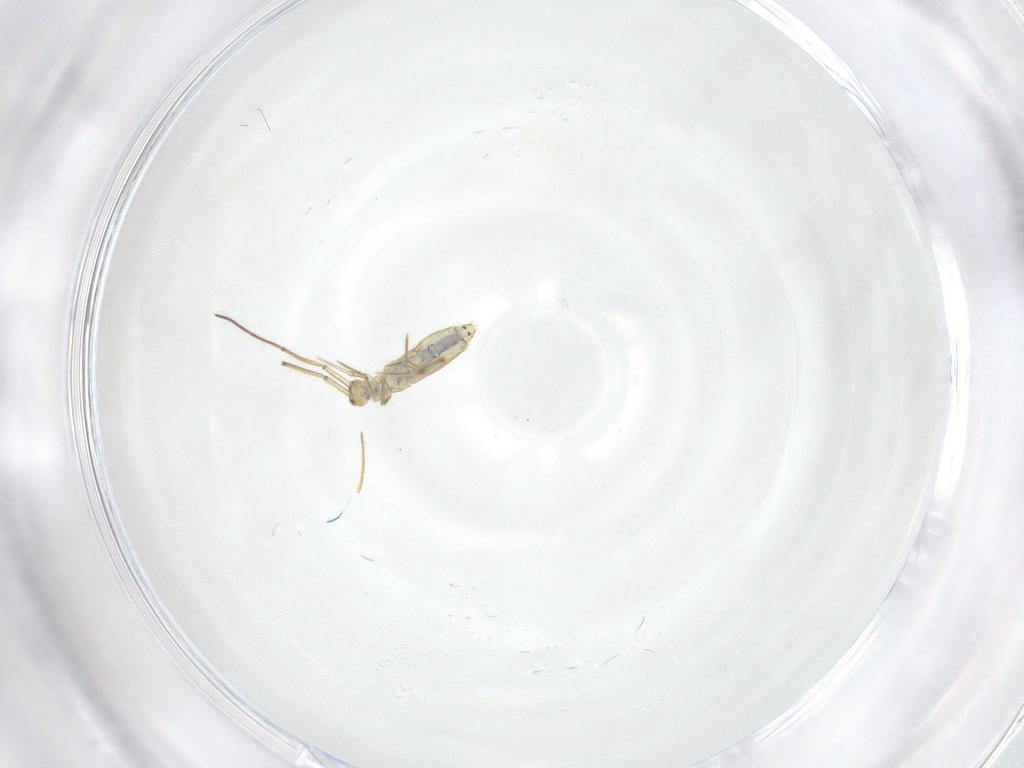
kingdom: Animalia
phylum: Arthropoda
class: Collembola
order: Entomobryomorpha
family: Entomobryidae
